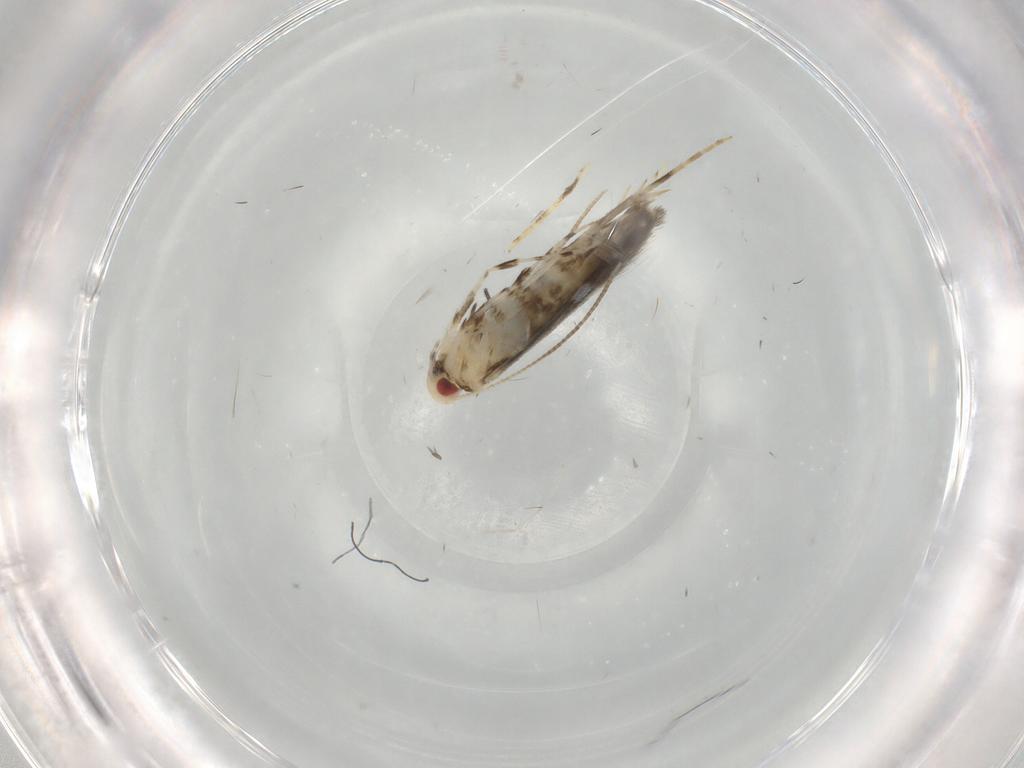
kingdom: Animalia
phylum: Arthropoda
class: Insecta
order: Lepidoptera
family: Gracillariidae
